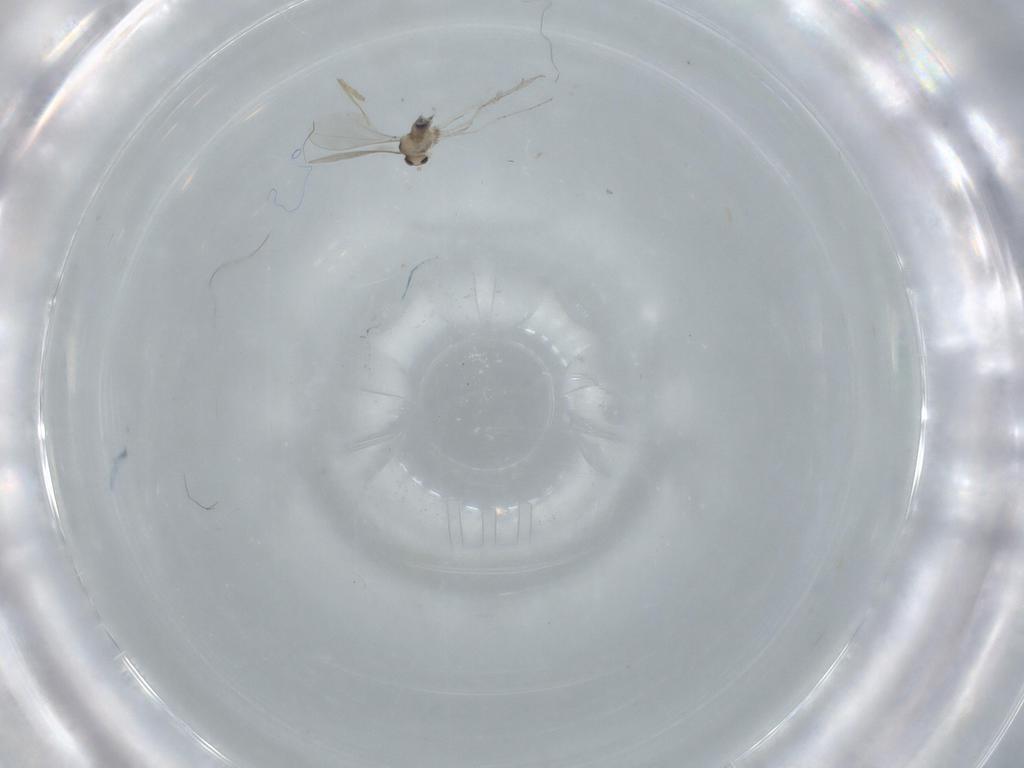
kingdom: Animalia
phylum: Arthropoda
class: Insecta
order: Diptera
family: Cecidomyiidae
